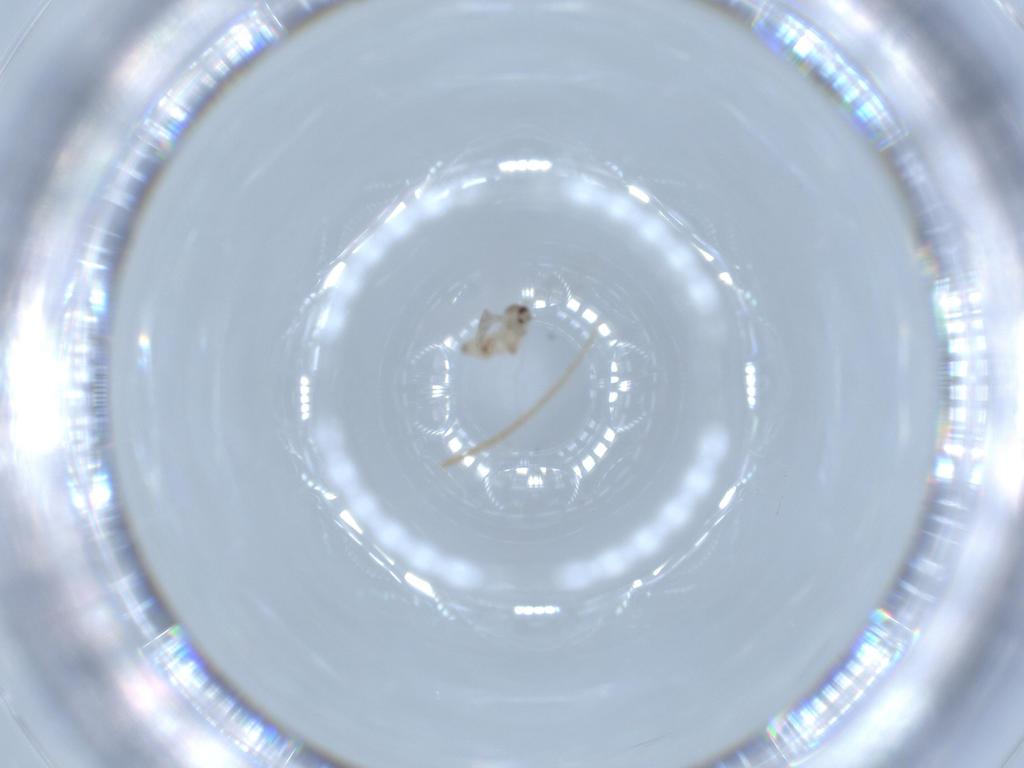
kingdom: Animalia
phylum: Arthropoda
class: Insecta
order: Diptera
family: Cecidomyiidae
